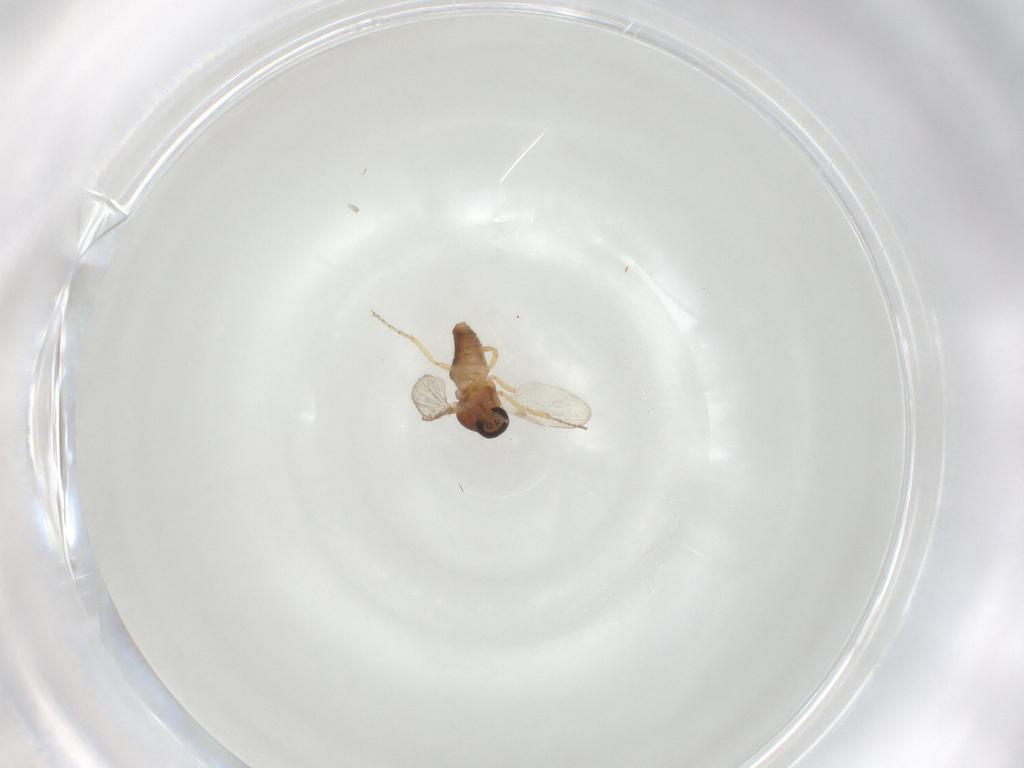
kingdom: Animalia
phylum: Arthropoda
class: Insecta
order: Diptera
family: Ceratopogonidae
